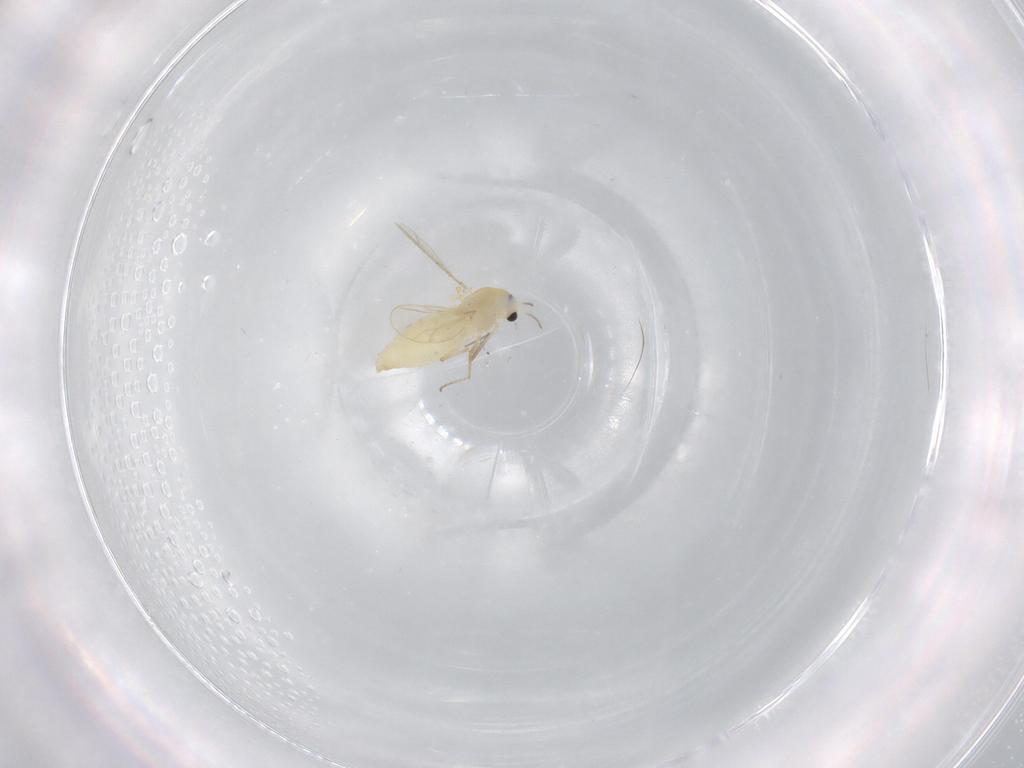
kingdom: Animalia
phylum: Arthropoda
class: Insecta
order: Diptera
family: Chironomidae
